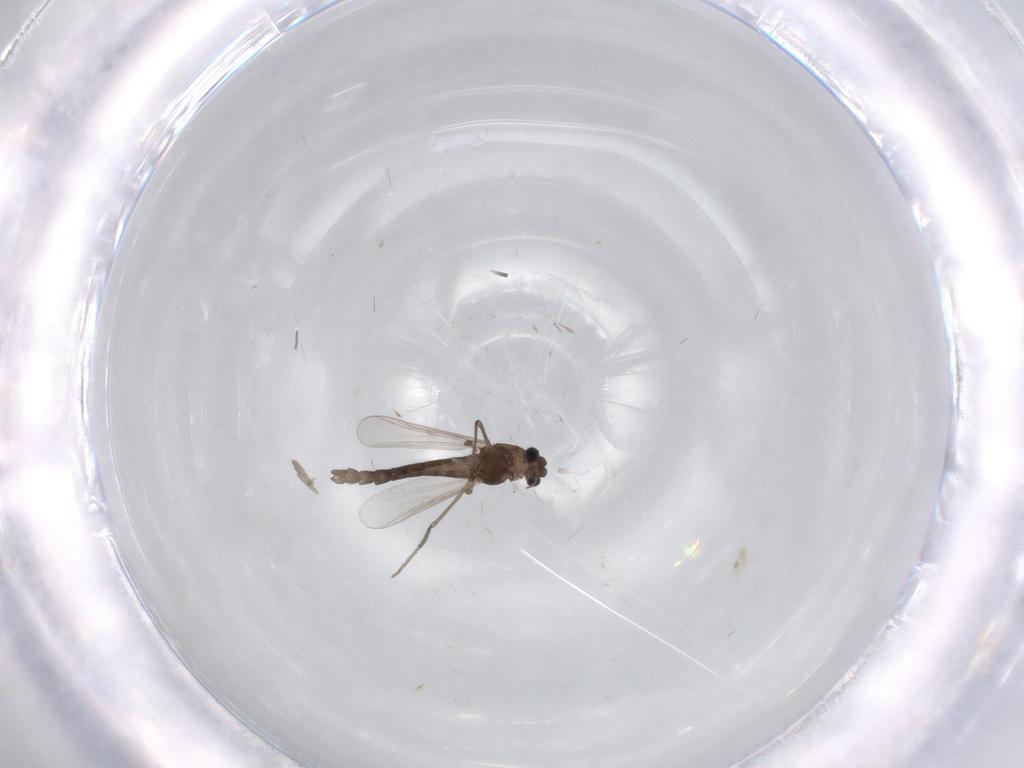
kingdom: Animalia
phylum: Arthropoda
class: Insecta
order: Diptera
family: Chironomidae
